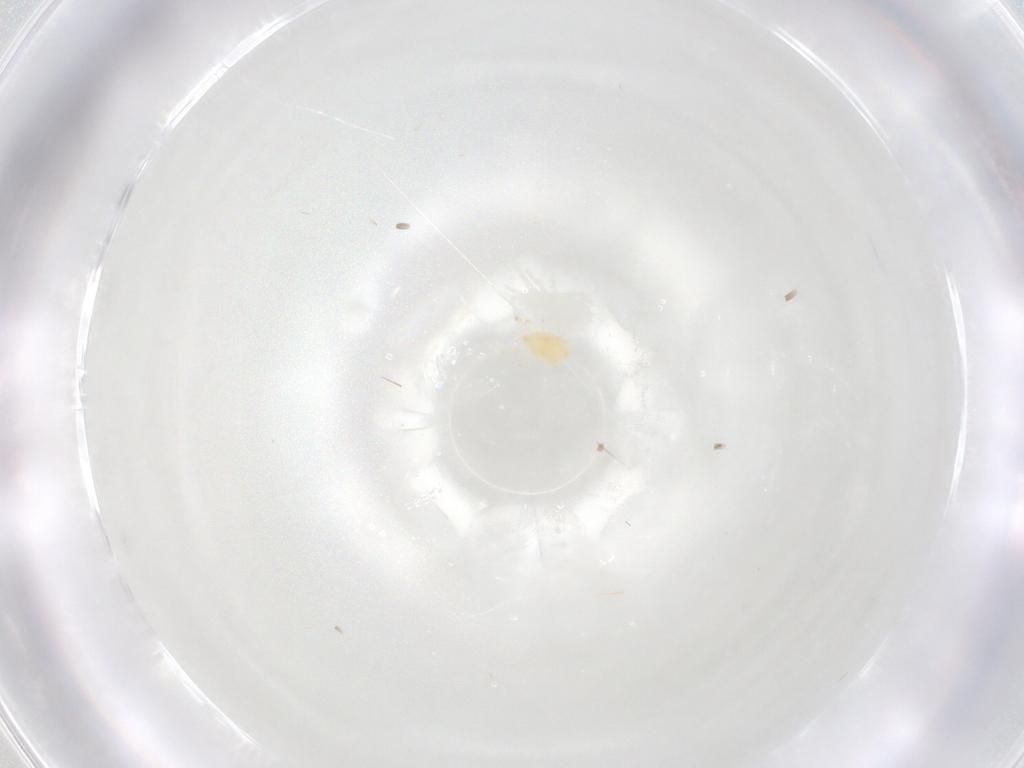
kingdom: Animalia
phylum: Arthropoda
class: Arachnida
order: Mesostigmata
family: Phytoseiidae
